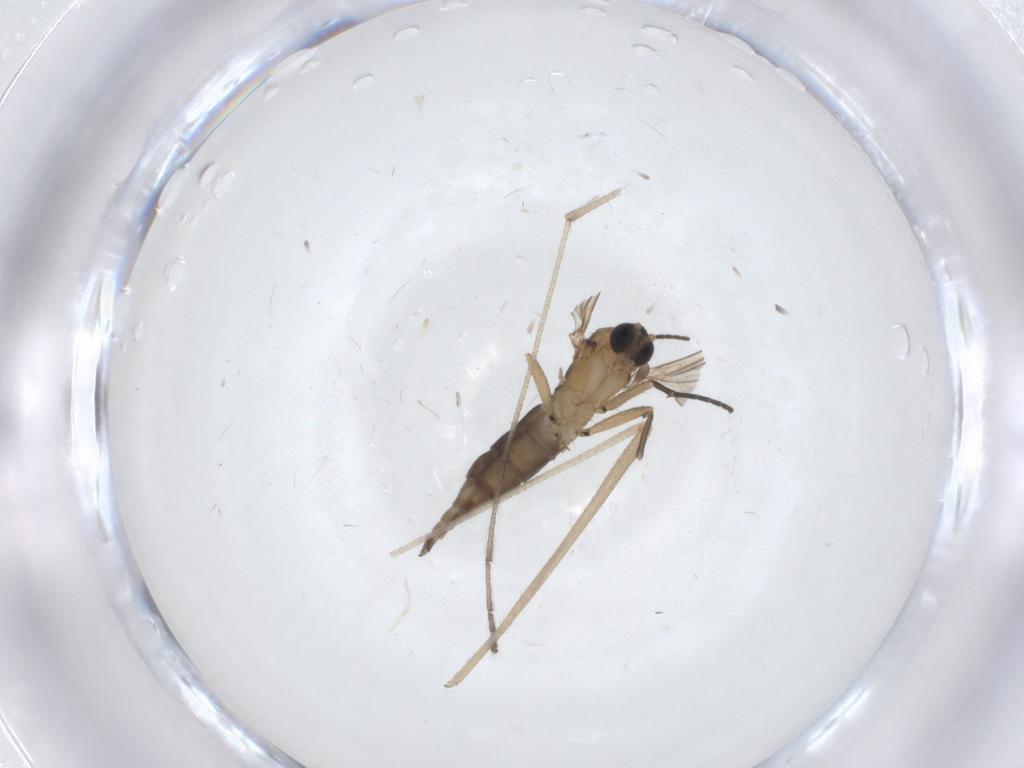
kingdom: Animalia
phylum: Arthropoda
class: Insecta
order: Diptera
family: Sciaridae
